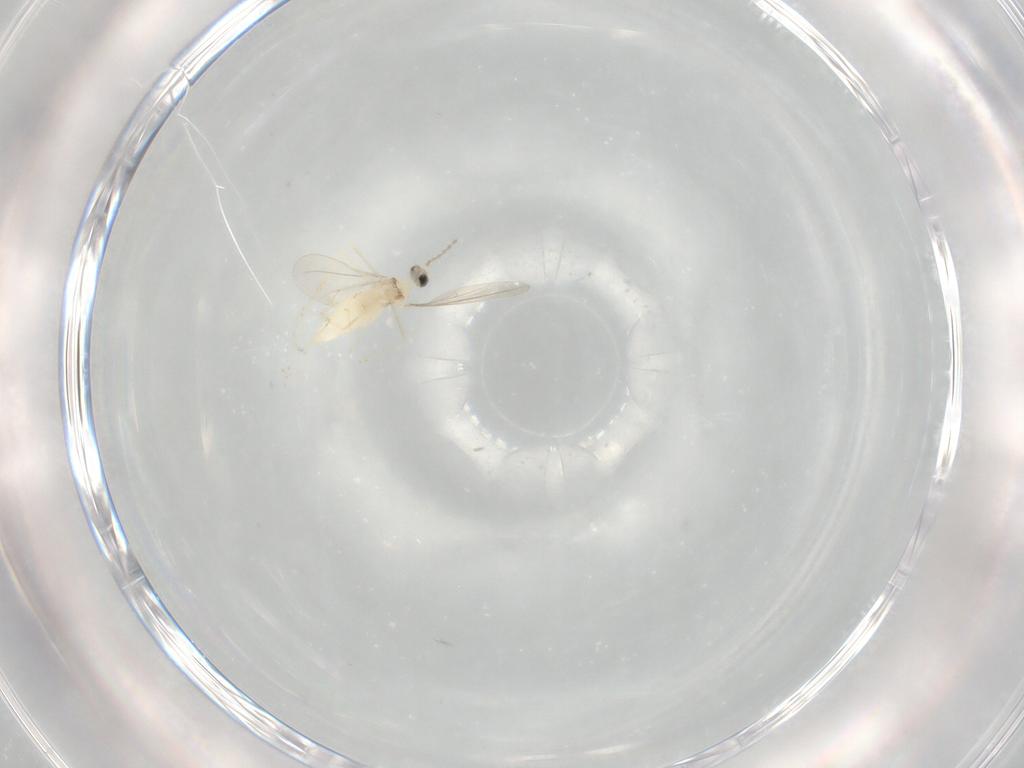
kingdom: Animalia
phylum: Arthropoda
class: Insecta
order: Diptera
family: Cecidomyiidae
